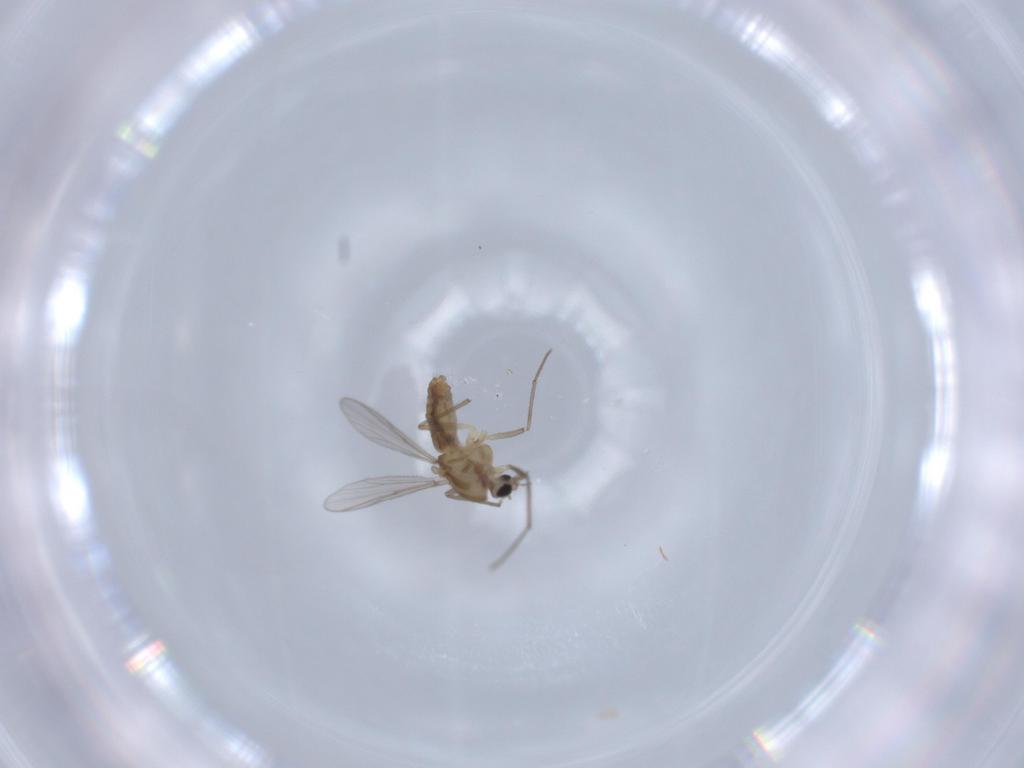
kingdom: Animalia
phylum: Arthropoda
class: Insecta
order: Diptera
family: Chironomidae
